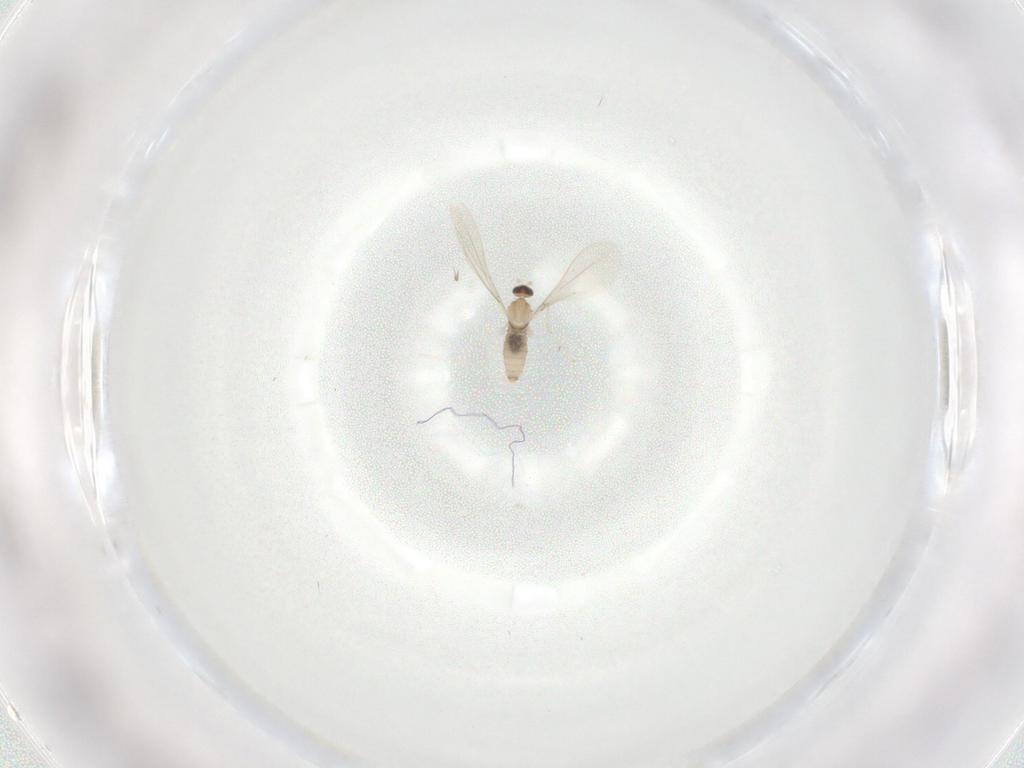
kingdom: Animalia
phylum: Arthropoda
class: Insecta
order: Diptera
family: Cecidomyiidae
